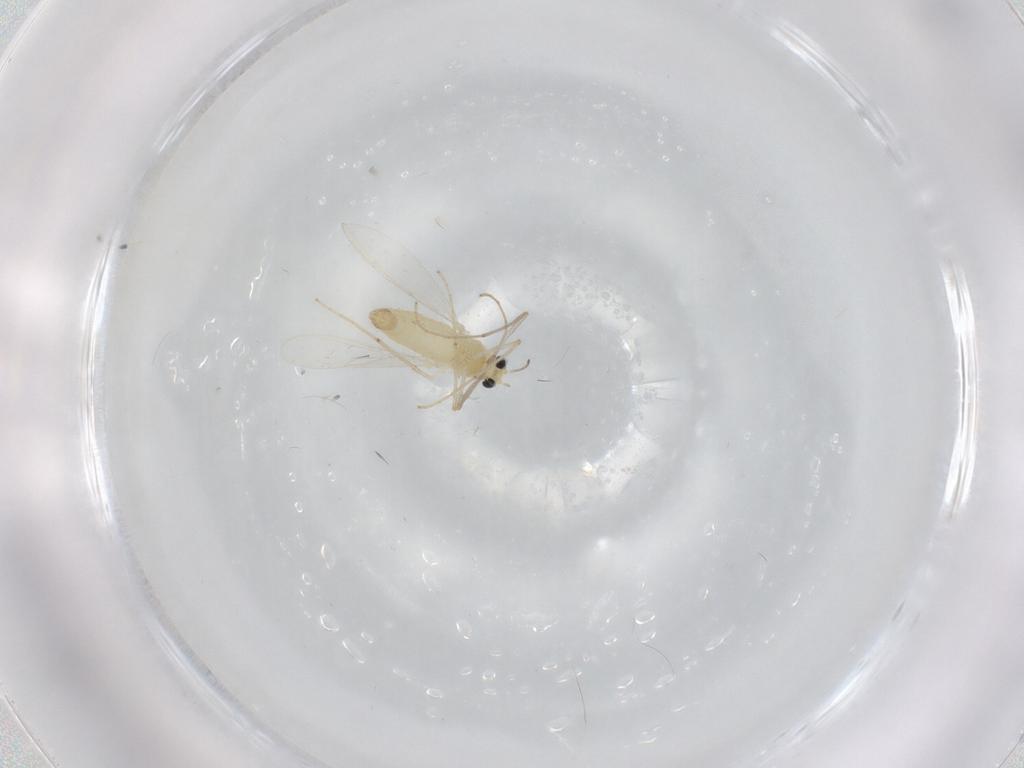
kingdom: Animalia
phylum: Arthropoda
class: Insecta
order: Diptera
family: Chironomidae
